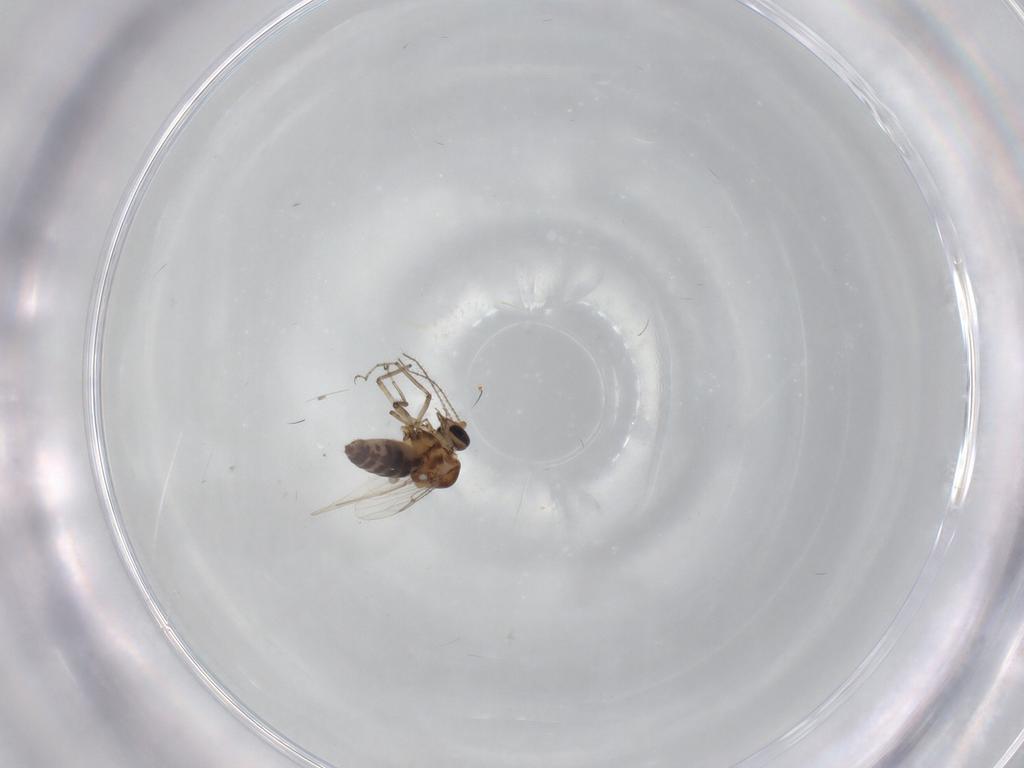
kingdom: Animalia
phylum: Arthropoda
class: Insecta
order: Diptera
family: Ceratopogonidae
